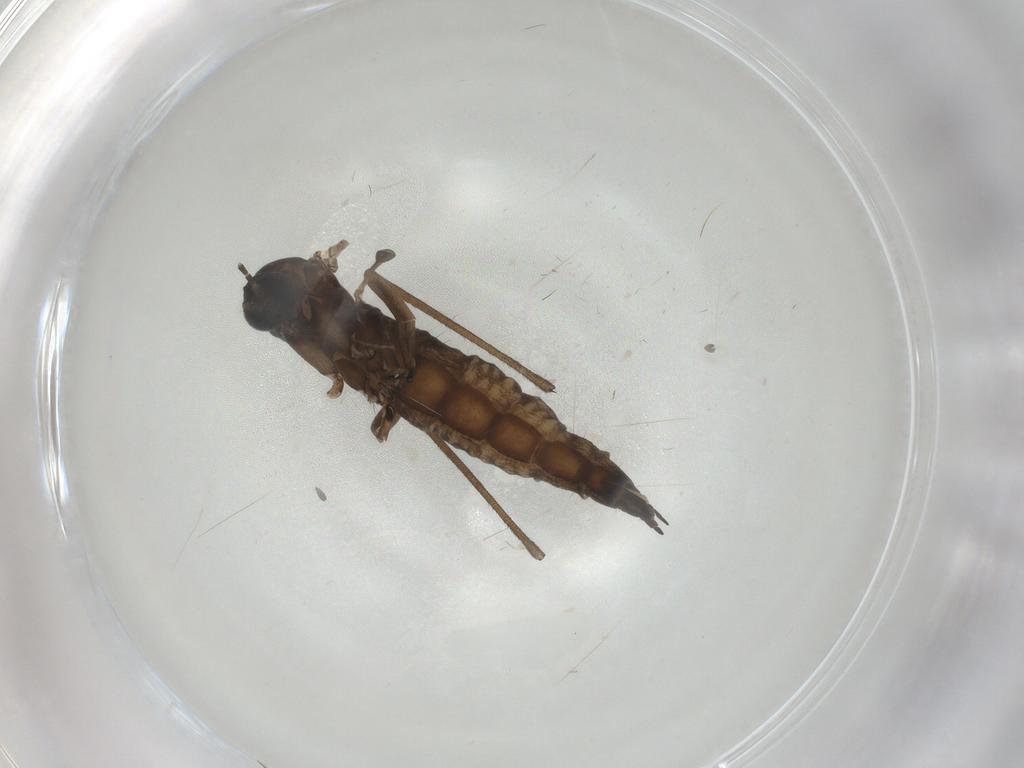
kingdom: Animalia
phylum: Arthropoda
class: Insecta
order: Diptera
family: Sciaridae
